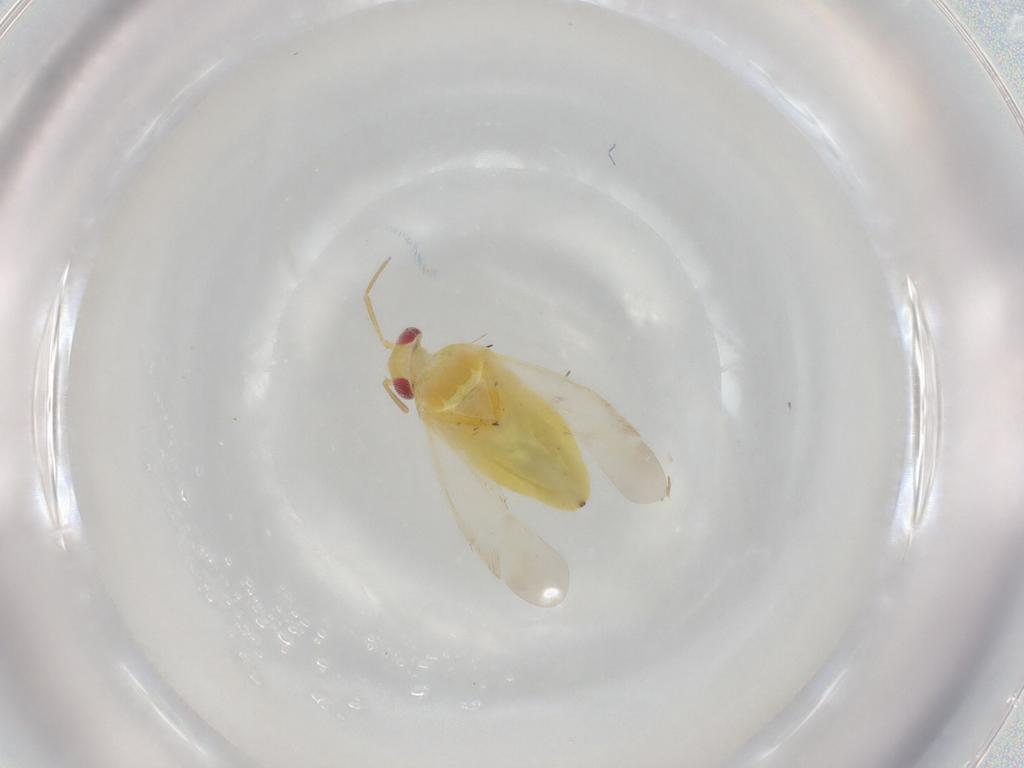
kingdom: Animalia
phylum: Arthropoda
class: Insecta
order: Hemiptera
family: Miridae
